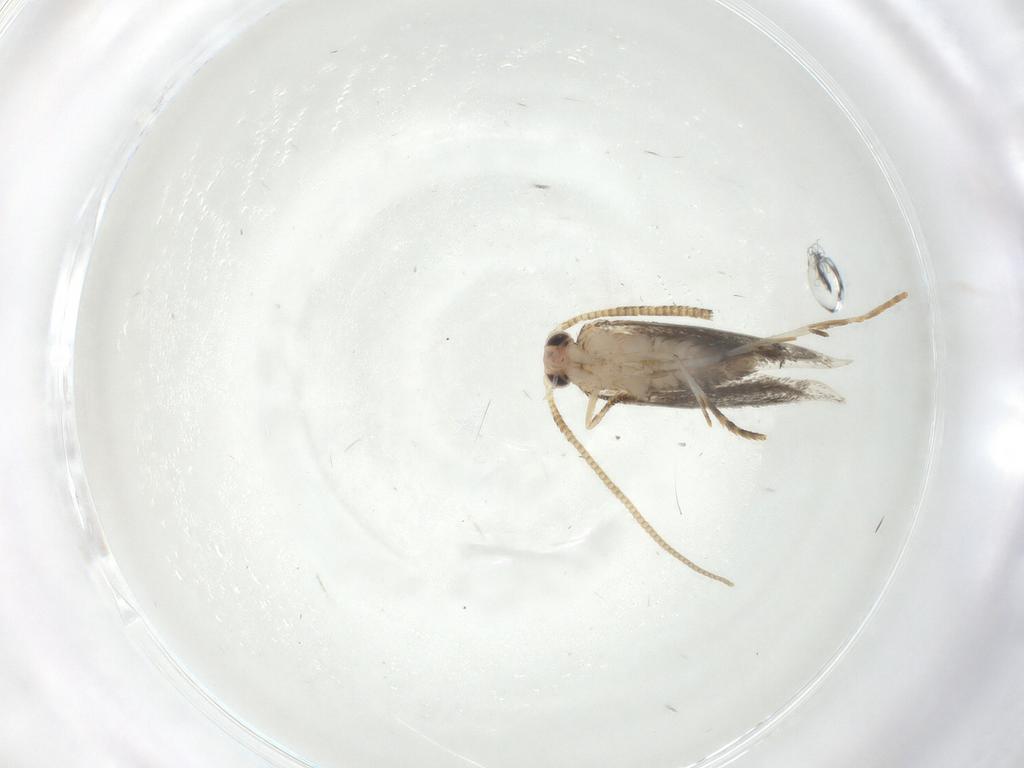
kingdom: Animalia
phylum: Arthropoda
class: Insecta
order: Lepidoptera
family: Tineidae
